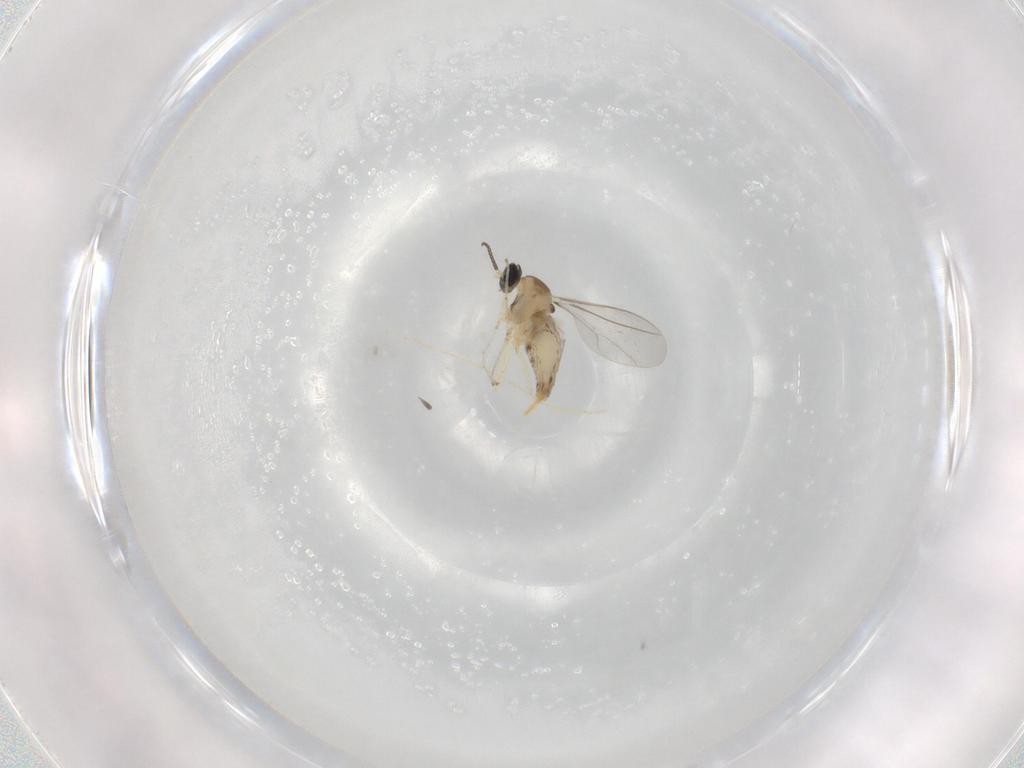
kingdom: Animalia
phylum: Arthropoda
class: Insecta
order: Diptera
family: Cecidomyiidae
